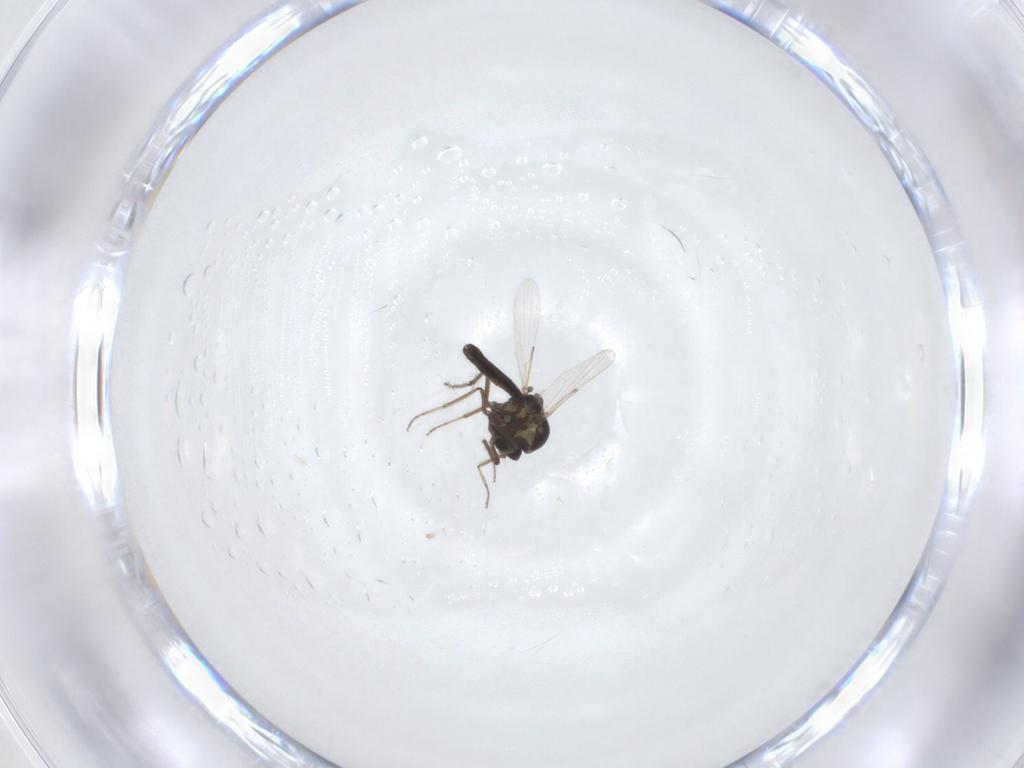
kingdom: Animalia
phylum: Arthropoda
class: Insecta
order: Diptera
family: Ceratopogonidae
